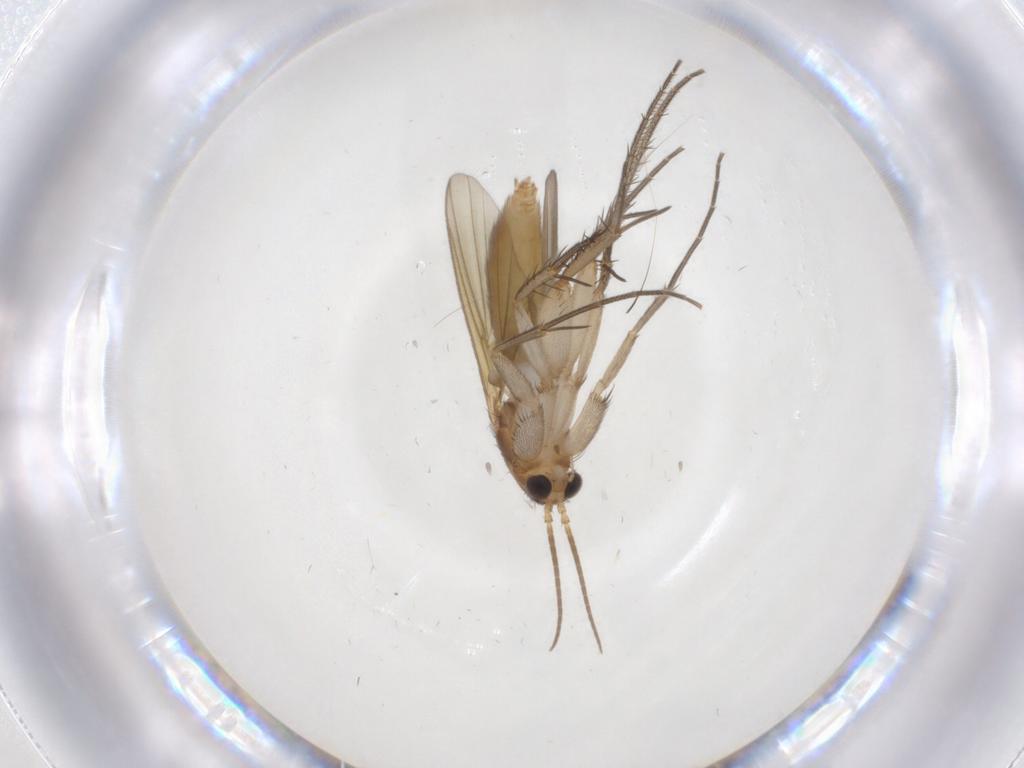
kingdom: Animalia
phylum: Arthropoda
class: Insecta
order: Diptera
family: Mycetophilidae
